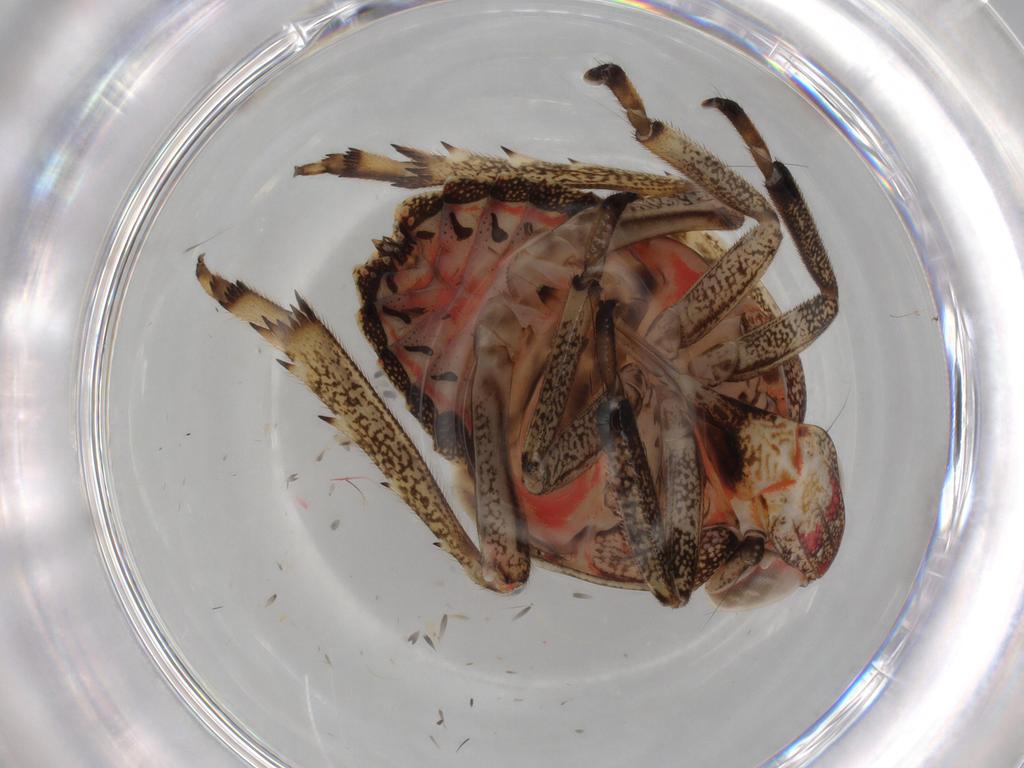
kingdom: Animalia
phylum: Arthropoda
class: Insecta
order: Hemiptera
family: Issidae
